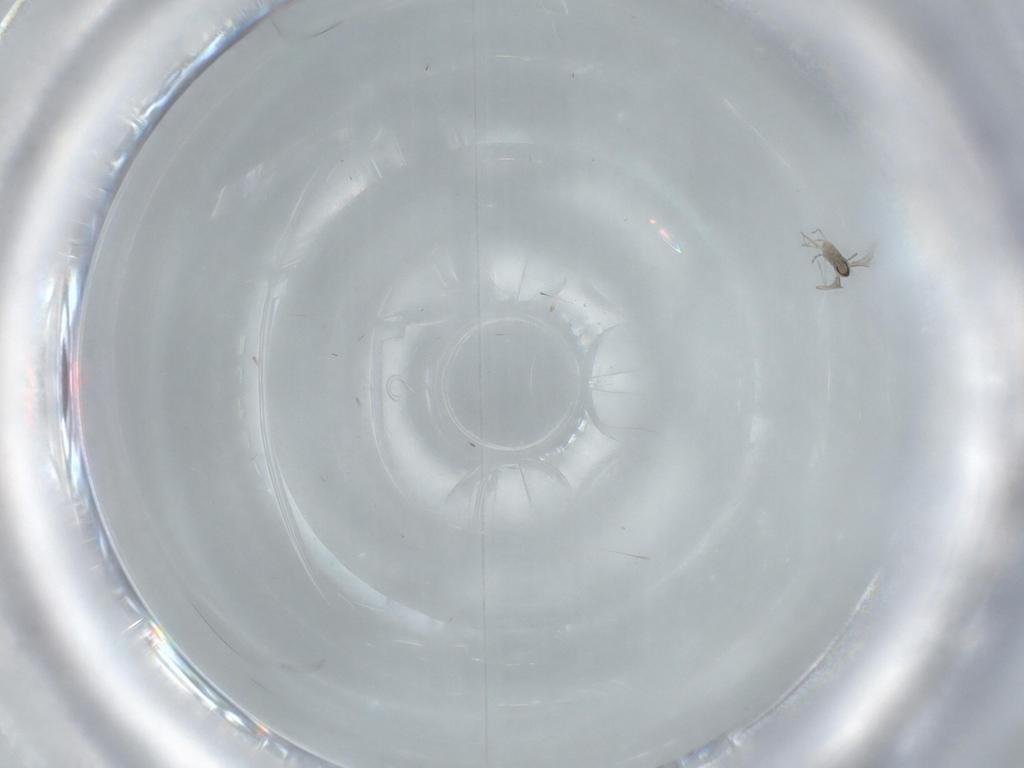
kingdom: Animalia
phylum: Arthropoda
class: Insecta
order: Diptera
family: Cecidomyiidae
